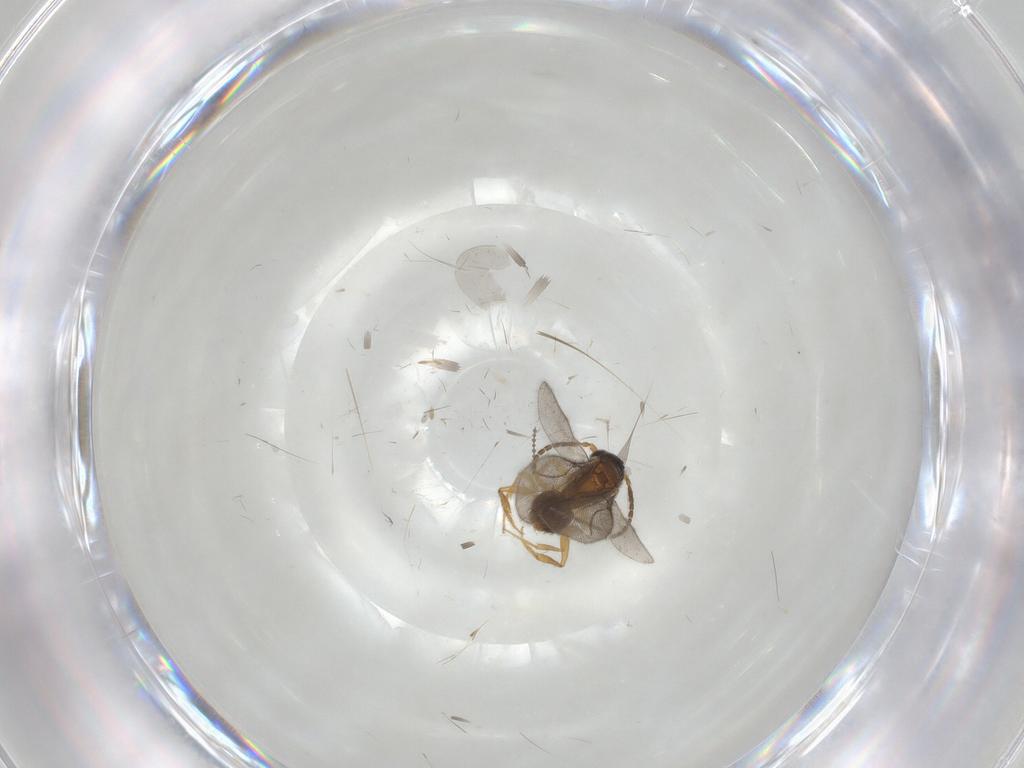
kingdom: Animalia
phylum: Arthropoda
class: Insecta
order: Hymenoptera
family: Bethylidae
